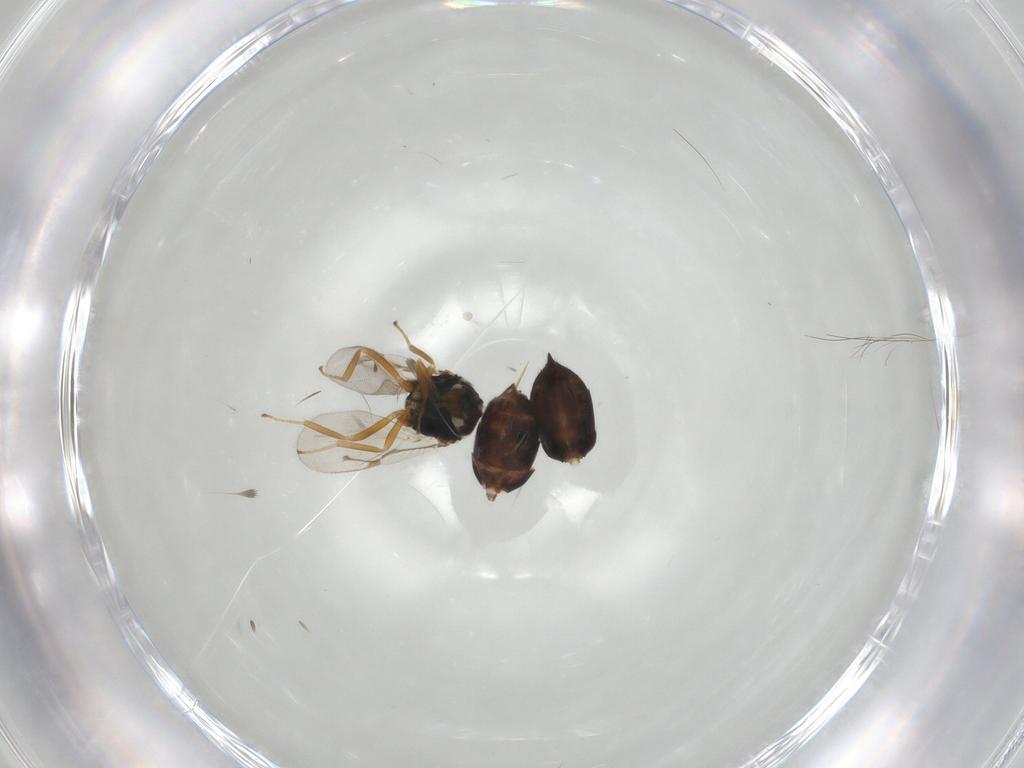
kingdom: Animalia
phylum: Arthropoda
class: Insecta
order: Hymenoptera
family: Eulophidae
